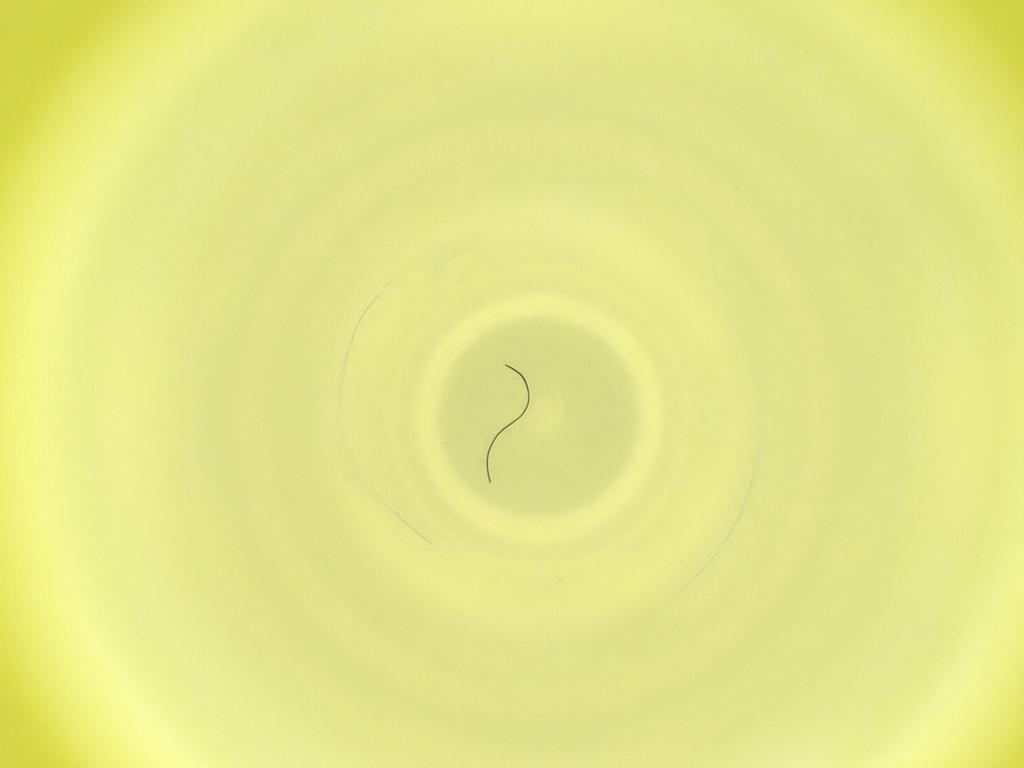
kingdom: Animalia
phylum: Arthropoda
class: Insecta
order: Diptera
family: Cecidomyiidae
